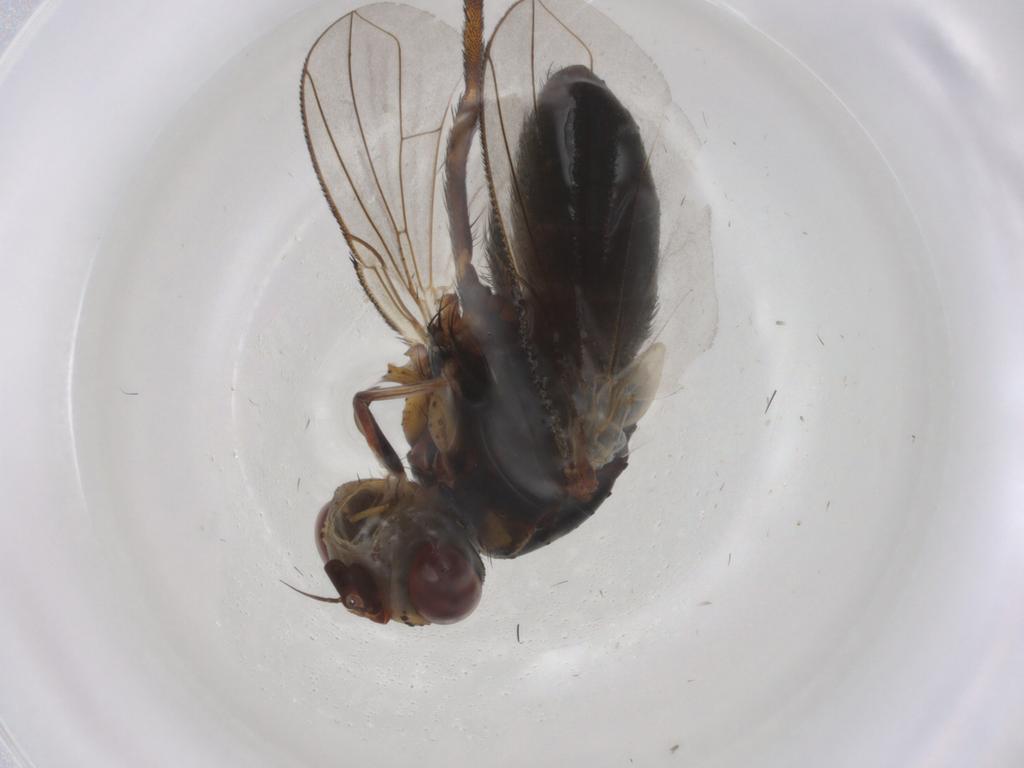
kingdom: Animalia
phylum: Arthropoda
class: Insecta
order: Diptera
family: Tachinidae
